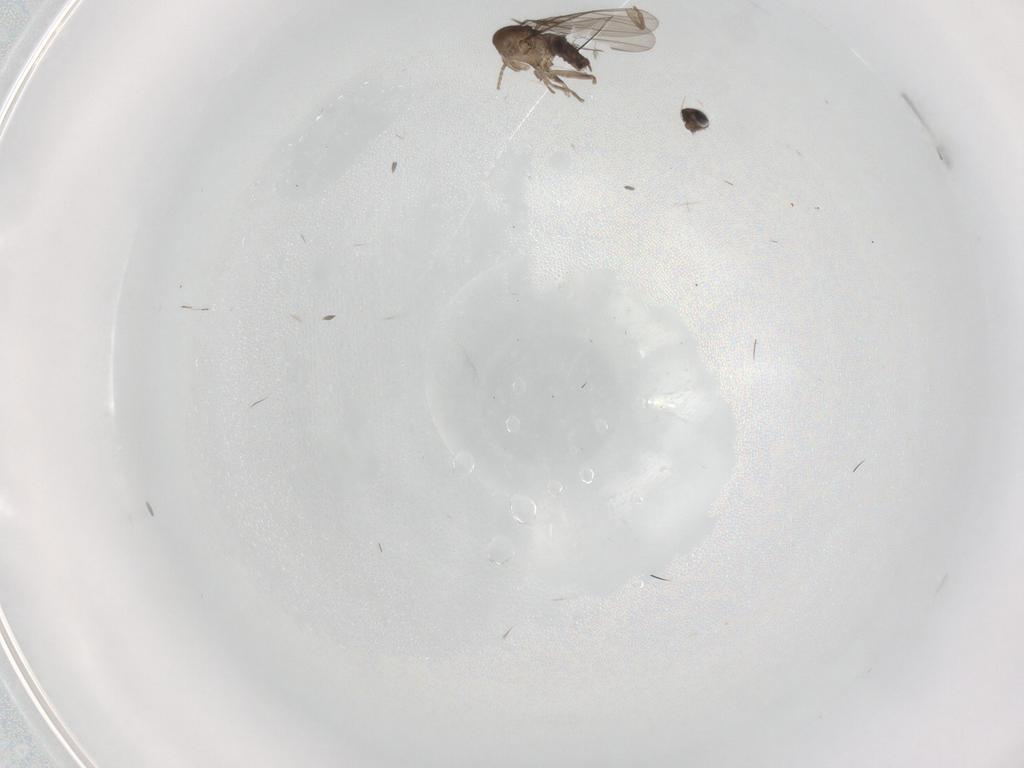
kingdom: Animalia
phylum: Arthropoda
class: Insecta
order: Diptera
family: Phoridae
